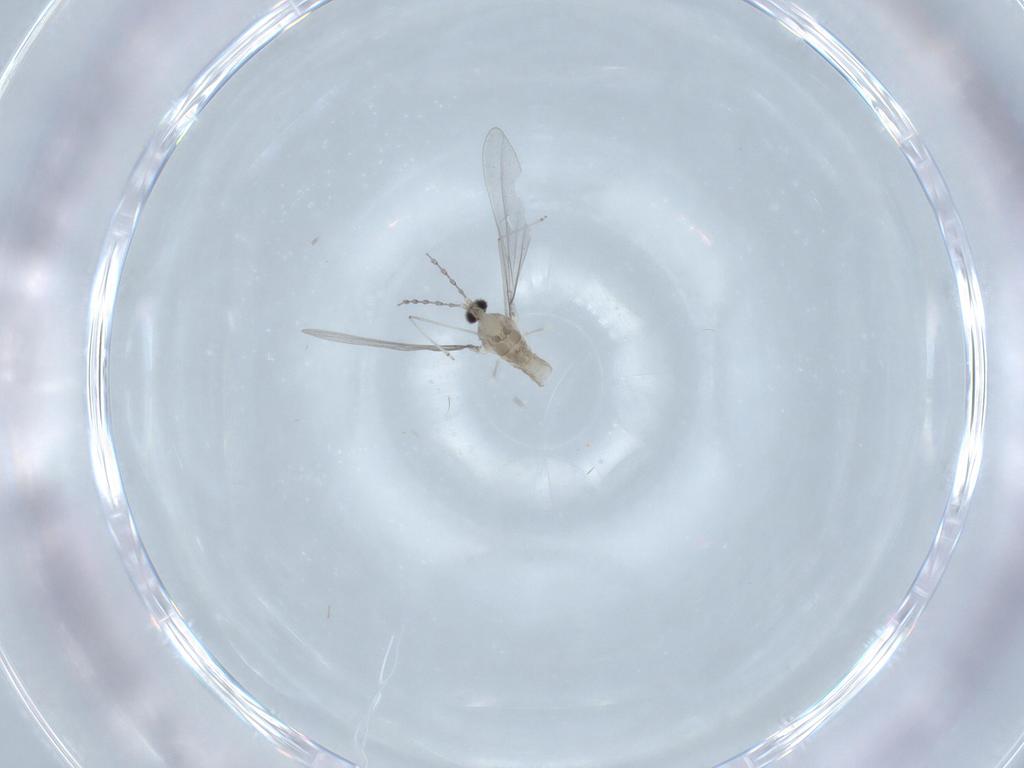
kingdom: Animalia
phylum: Arthropoda
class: Insecta
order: Diptera
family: Cecidomyiidae
